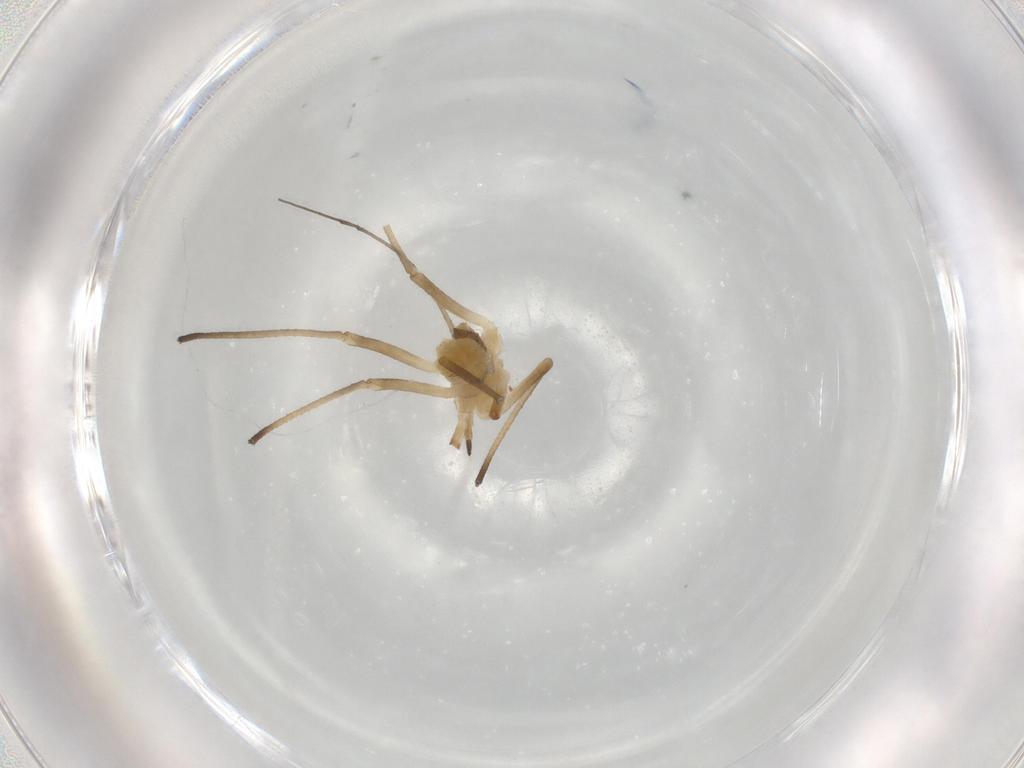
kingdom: Animalia
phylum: Arthropoda
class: Insecta
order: Hemiptera
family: Aphididae
